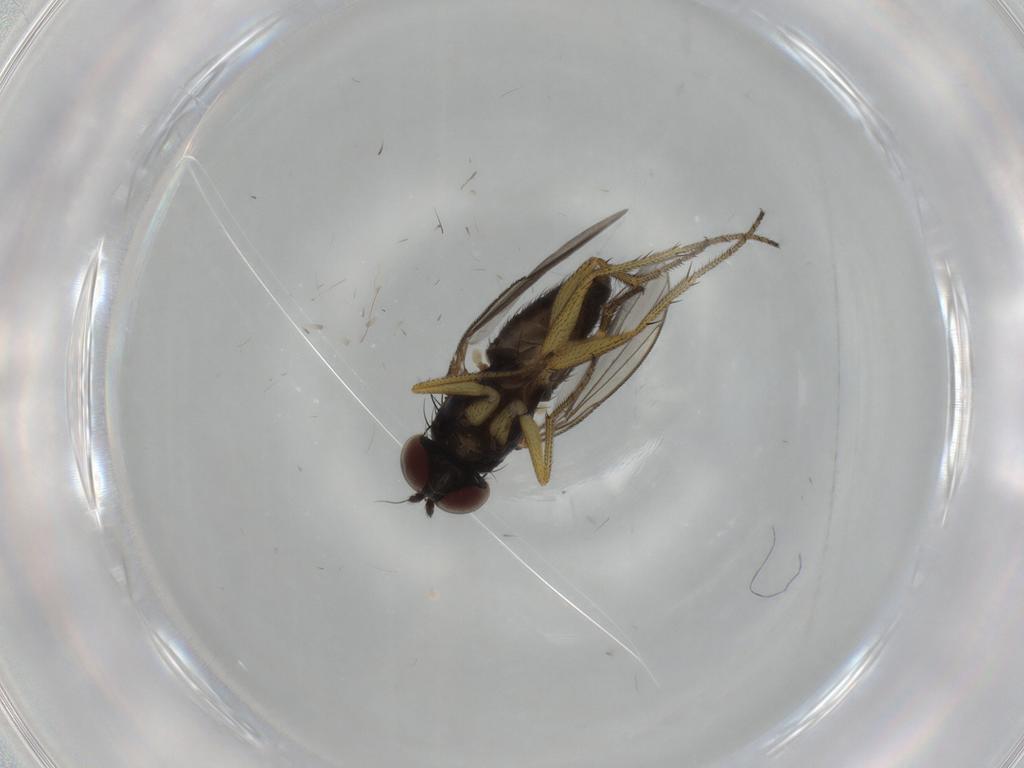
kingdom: Animalia
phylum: Arthropoda
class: Insecta
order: Diptera
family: Dolichopodidae
